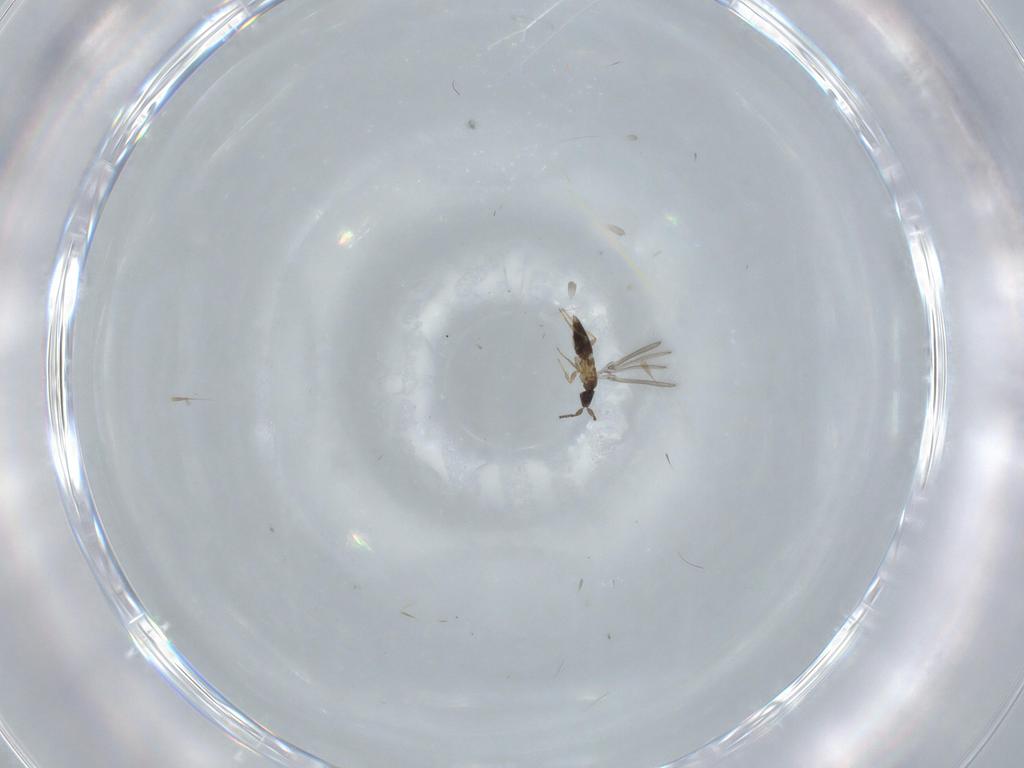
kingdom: Animalia
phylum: Arthropoda
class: Insecta
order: Hymenoptera
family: Mymaridae
